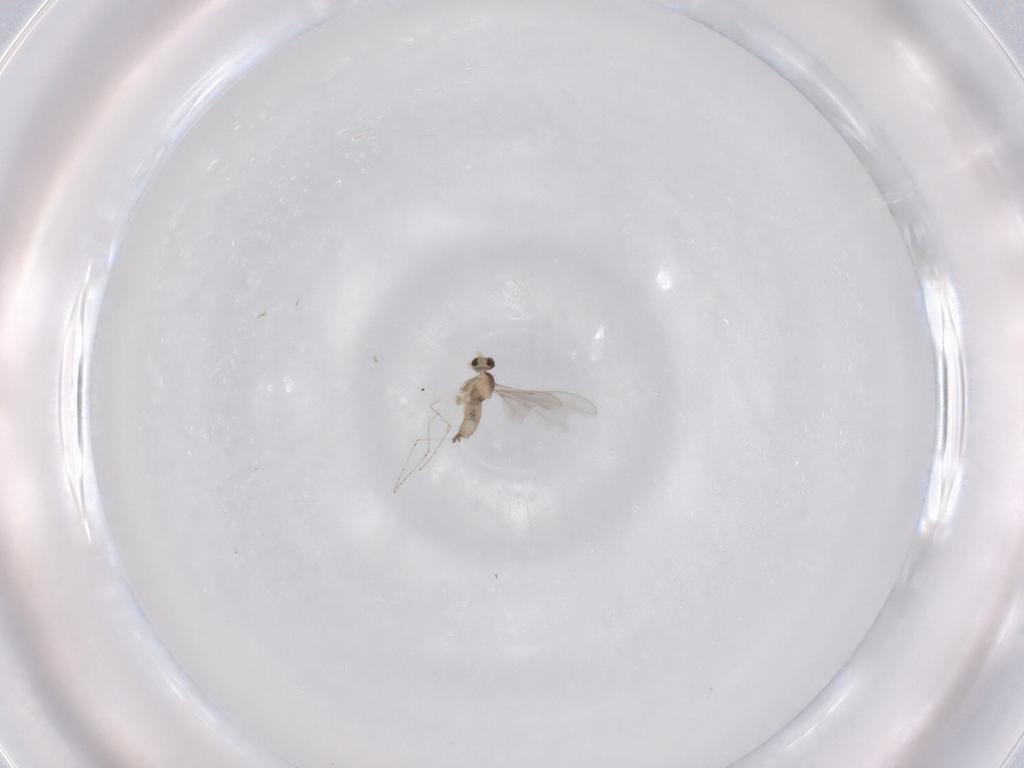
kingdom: Animalia
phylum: Arthropoda
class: Insecta
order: Diptera
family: Cecidomyiidae
